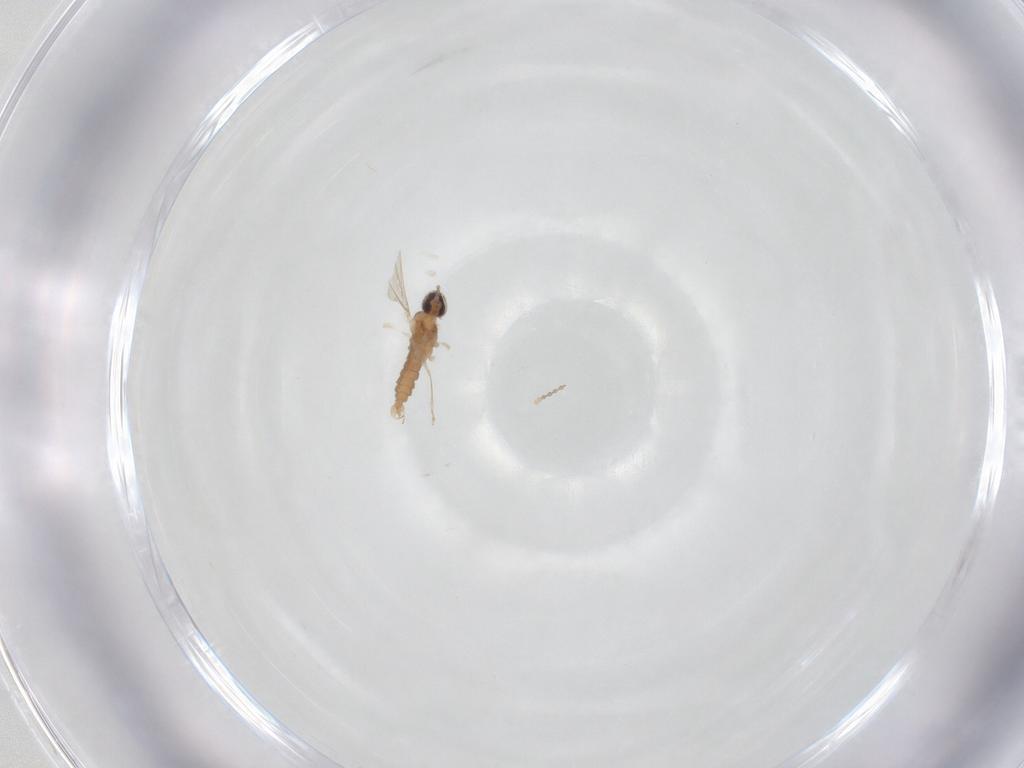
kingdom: Animalia
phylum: Arthropoda
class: Insecta
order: Diptera
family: Cecidomyiidae
